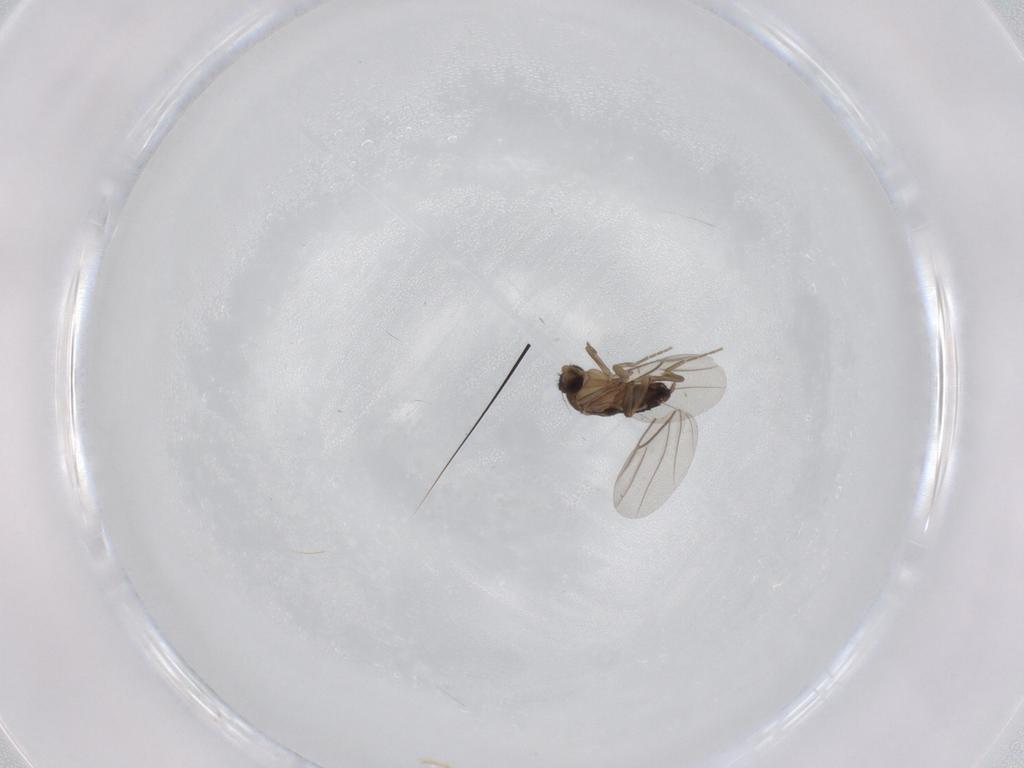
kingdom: Animalia
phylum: Arthropoda
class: Insecta
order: Diptera
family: Phoridae
